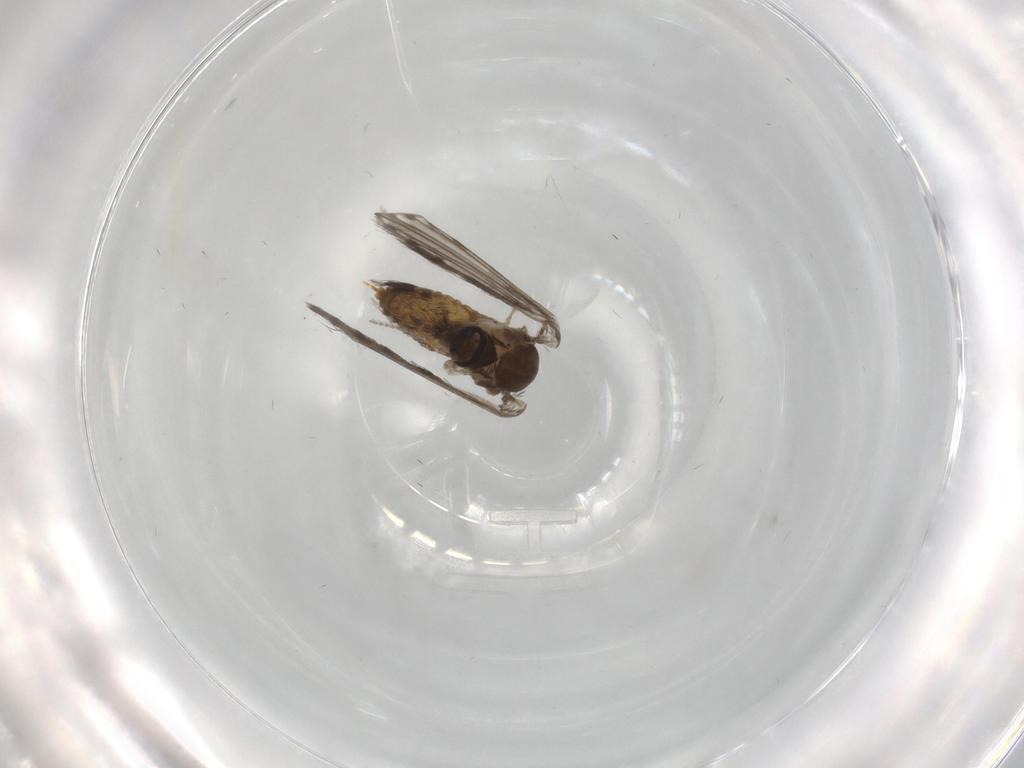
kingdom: Animalia
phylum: Arthropoda
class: Insecta
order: Diptera
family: Psychodidae
